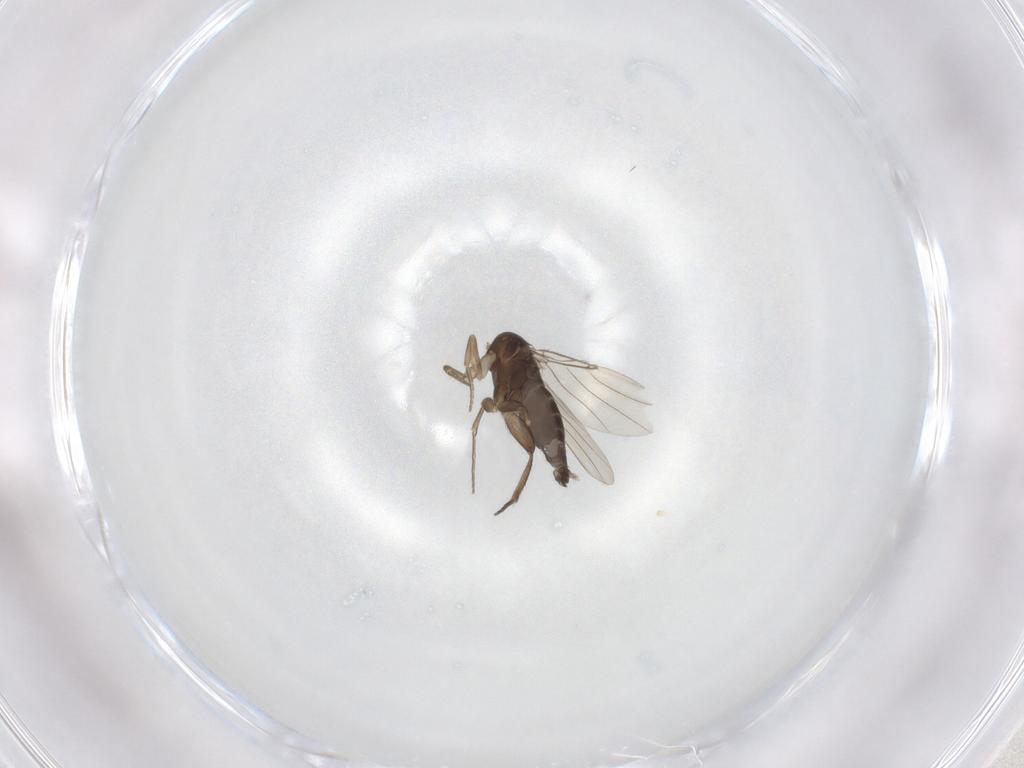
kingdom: Animalia
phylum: Arthropoda
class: Insecta
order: Diptera
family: Phoridae
